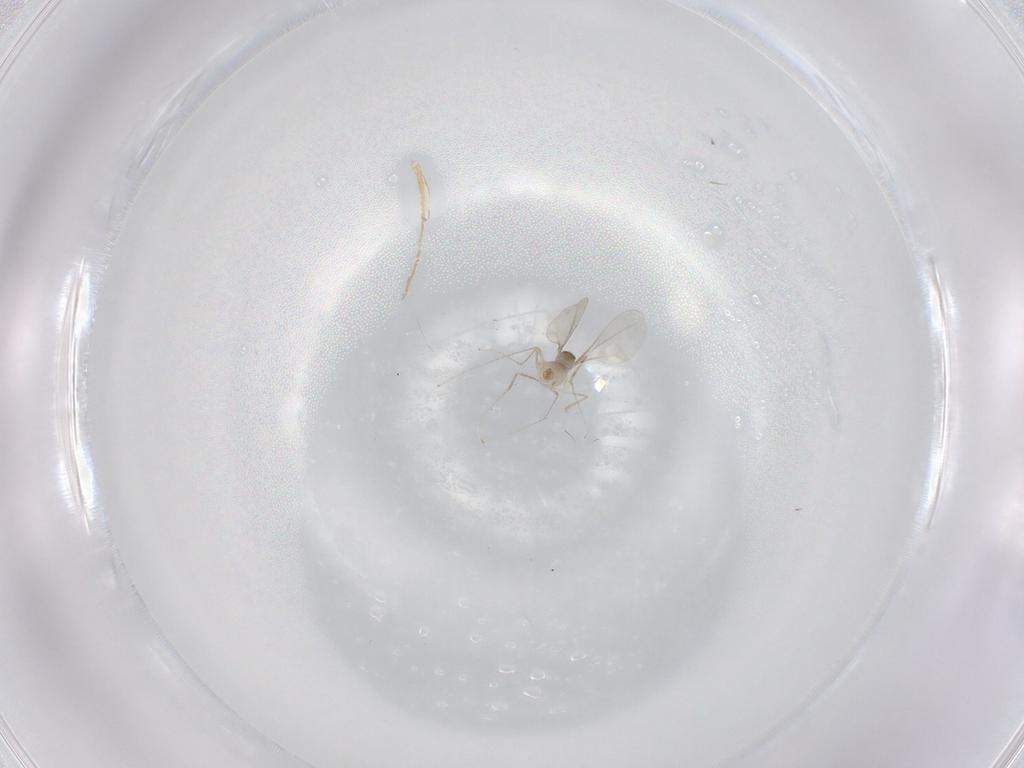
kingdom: Animalia
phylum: Arthropoda
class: Insecta
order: Diptera
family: Cecidomyiidae
